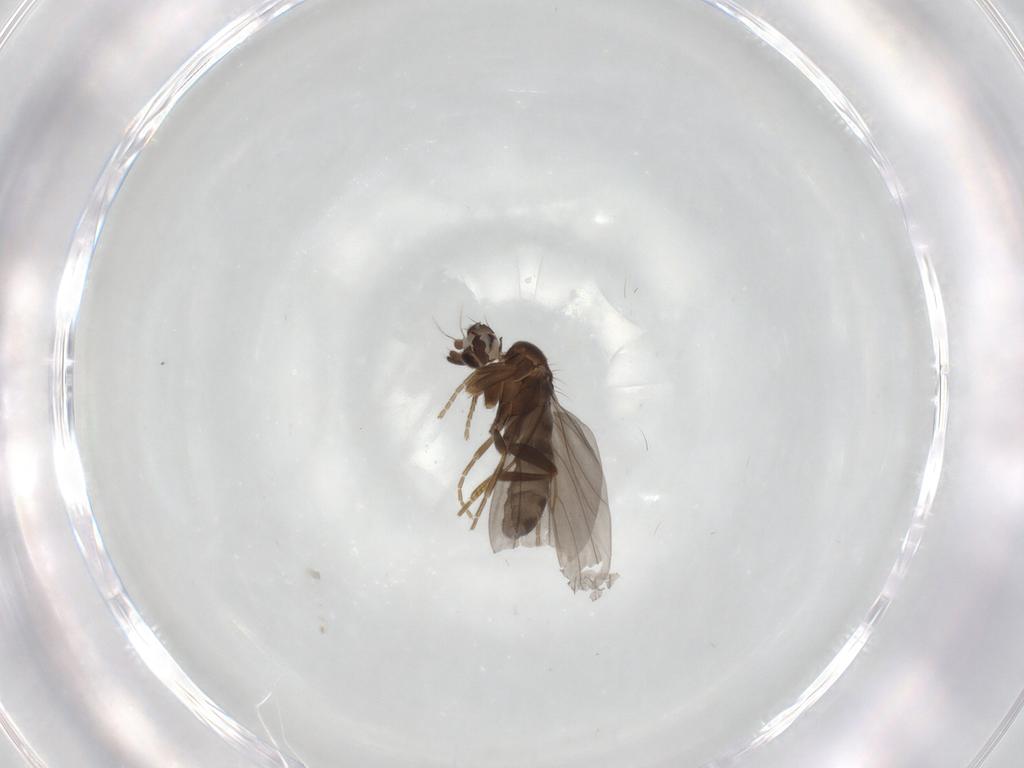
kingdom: Animalia
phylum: Arthropoda
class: Insecta
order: Diptera
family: Phoridae
